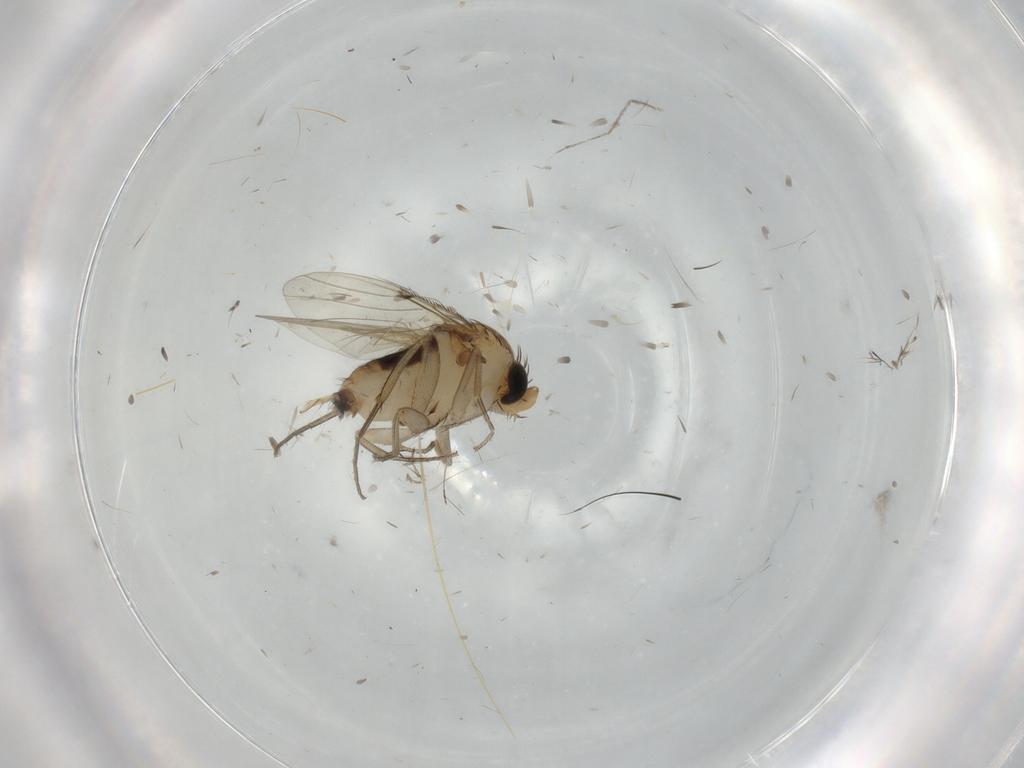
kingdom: Animalia
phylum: Arthropoda
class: Insecta
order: Diptera
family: Phoridae
